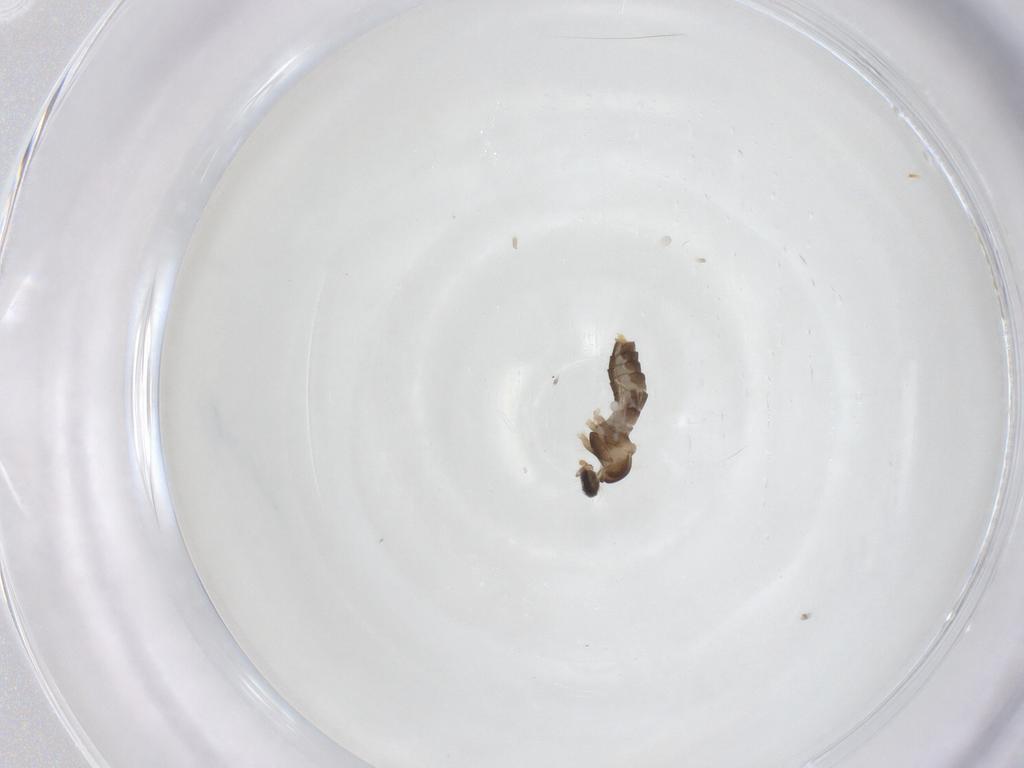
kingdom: Animalia
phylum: Arthropoda
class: Insecta
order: Diptera
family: Cecidomyiidae
